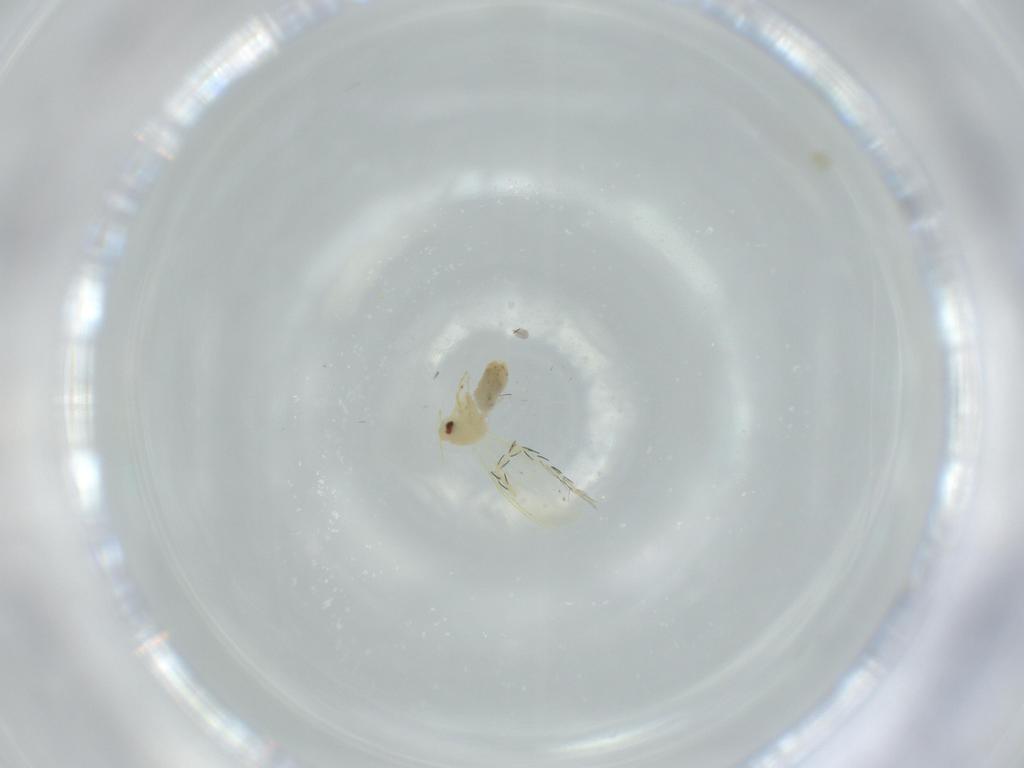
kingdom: Animalia
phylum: Arthropoda
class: Insecta
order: Hemiptera
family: Aleyrodidae
